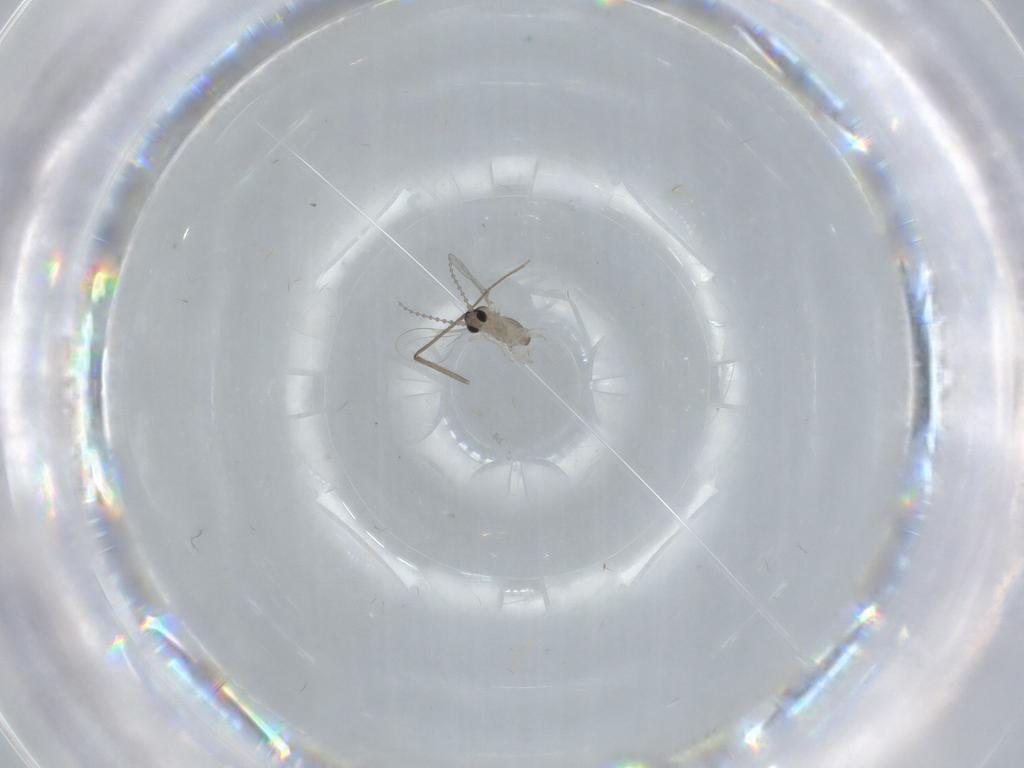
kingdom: Animalia
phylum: Arthropoda
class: Insecta
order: Diptera
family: Cecidomyiidae
